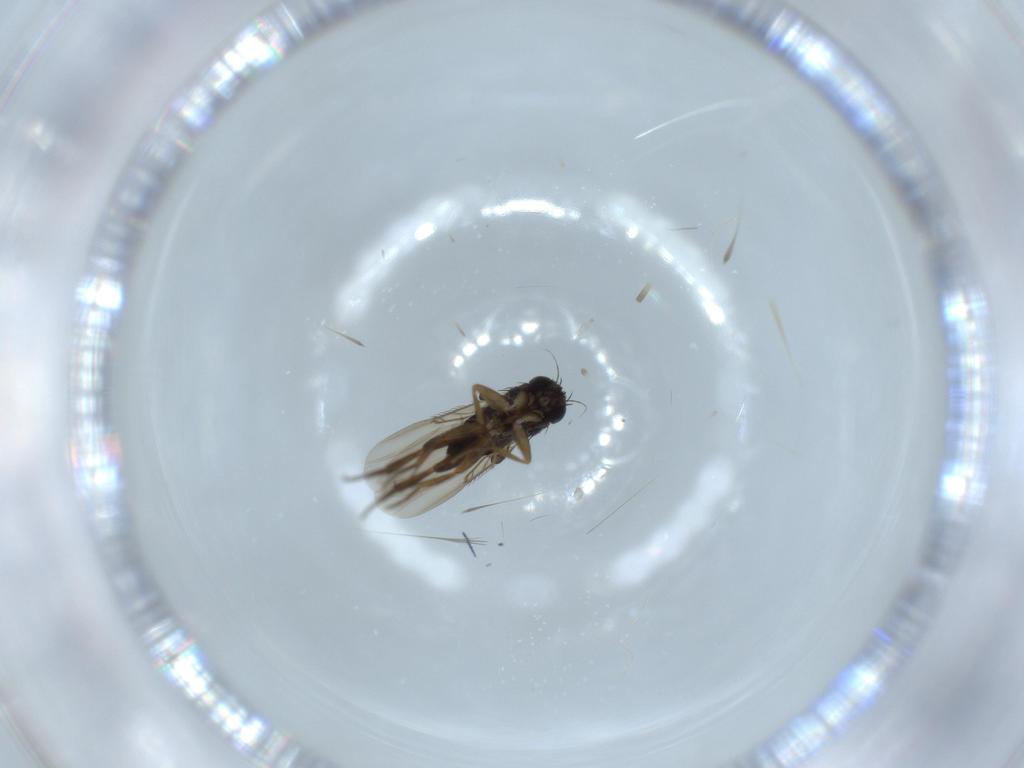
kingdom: Animalia
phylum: Arthropoda
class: Insecta
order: Diptera
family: Phoridae
